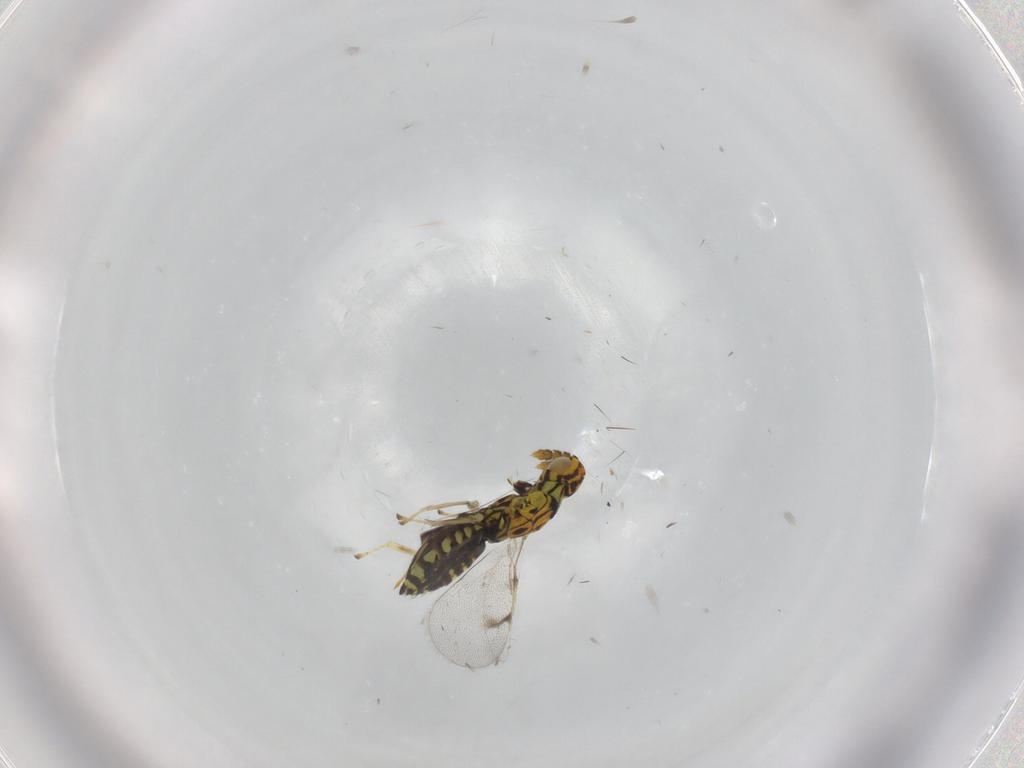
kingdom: Animalia
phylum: Arthropoda
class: Insecta
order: Hymenoptera
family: Eulophidae
